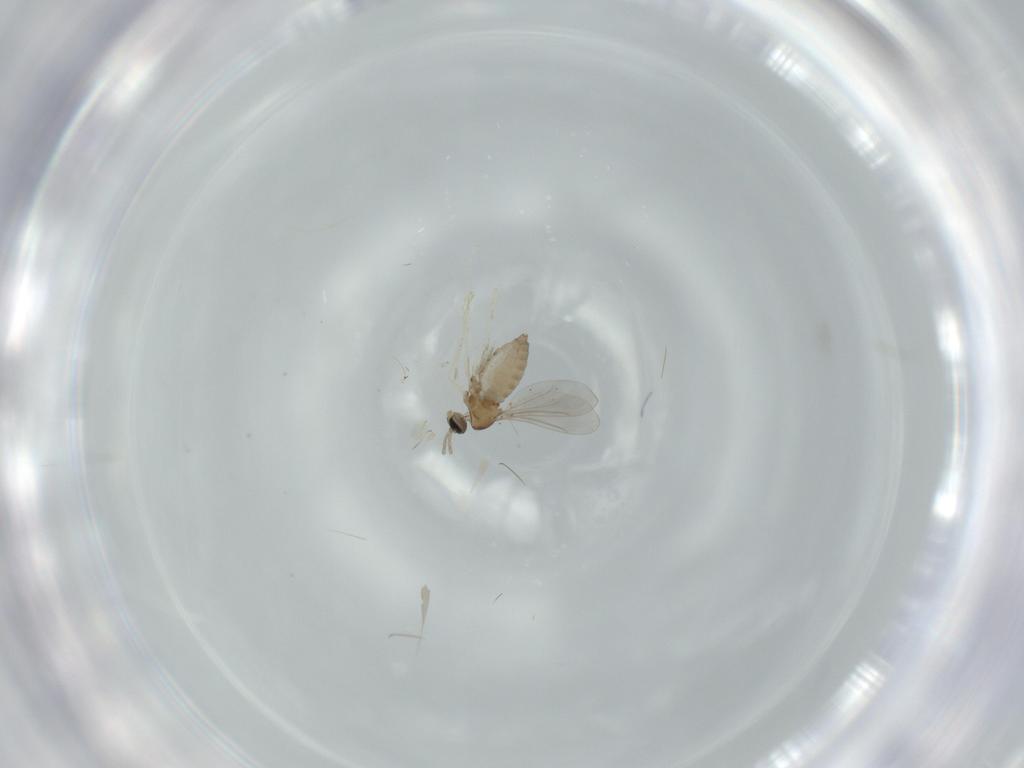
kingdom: Animalia
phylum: Arthropoda
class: Insecta
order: Diptera
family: Cecidomyiidae
